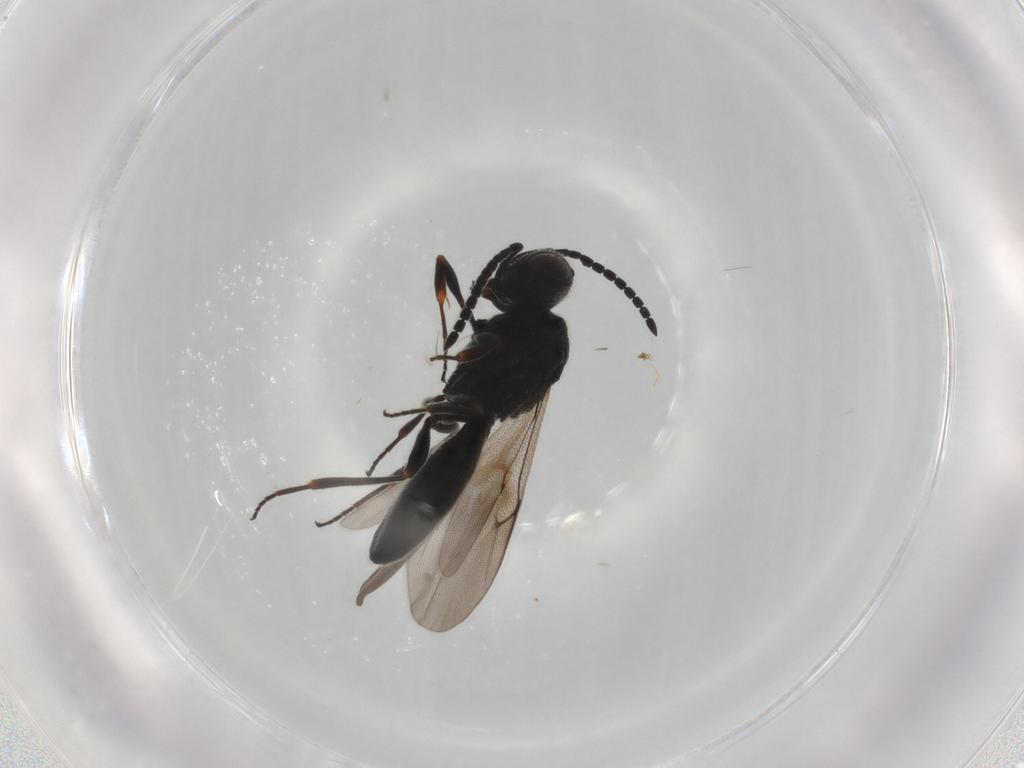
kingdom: Animalia
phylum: Arthropoda
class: Insecta
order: Hymenoptera
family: Scelionidae
